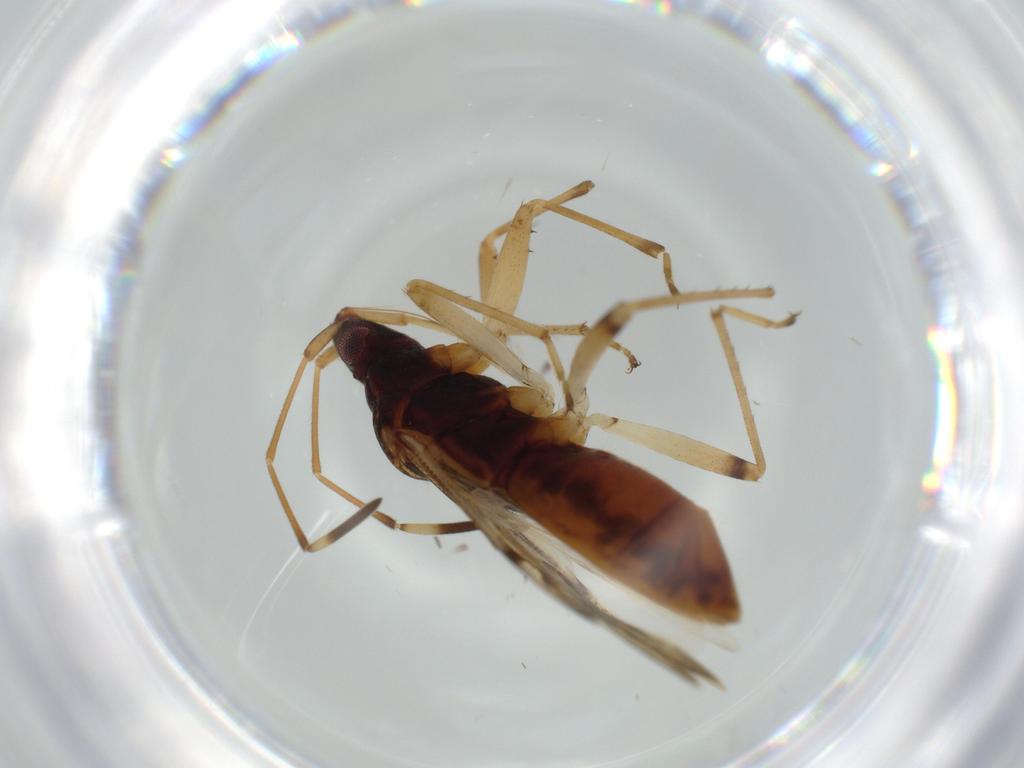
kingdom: Animalia
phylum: Arthropoda
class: Insecta
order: Hemiptera
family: Rhyparochromidae
